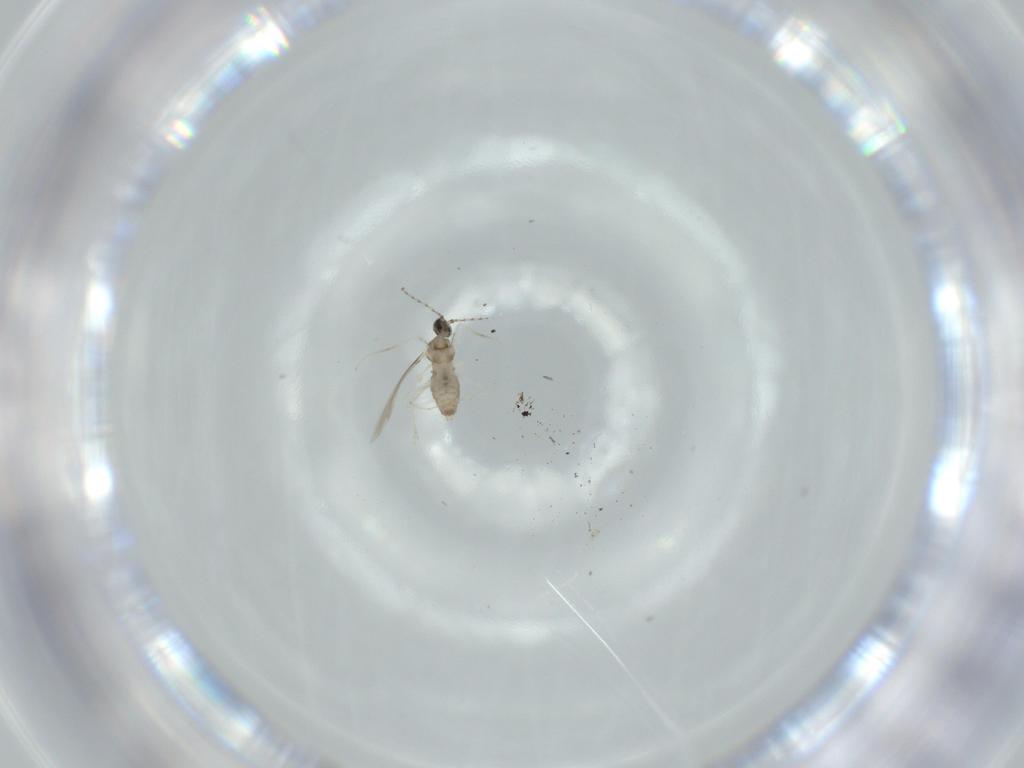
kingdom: Animalia
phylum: Arthropoda
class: Insecta
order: Diptera
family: Cecidomyiidae
